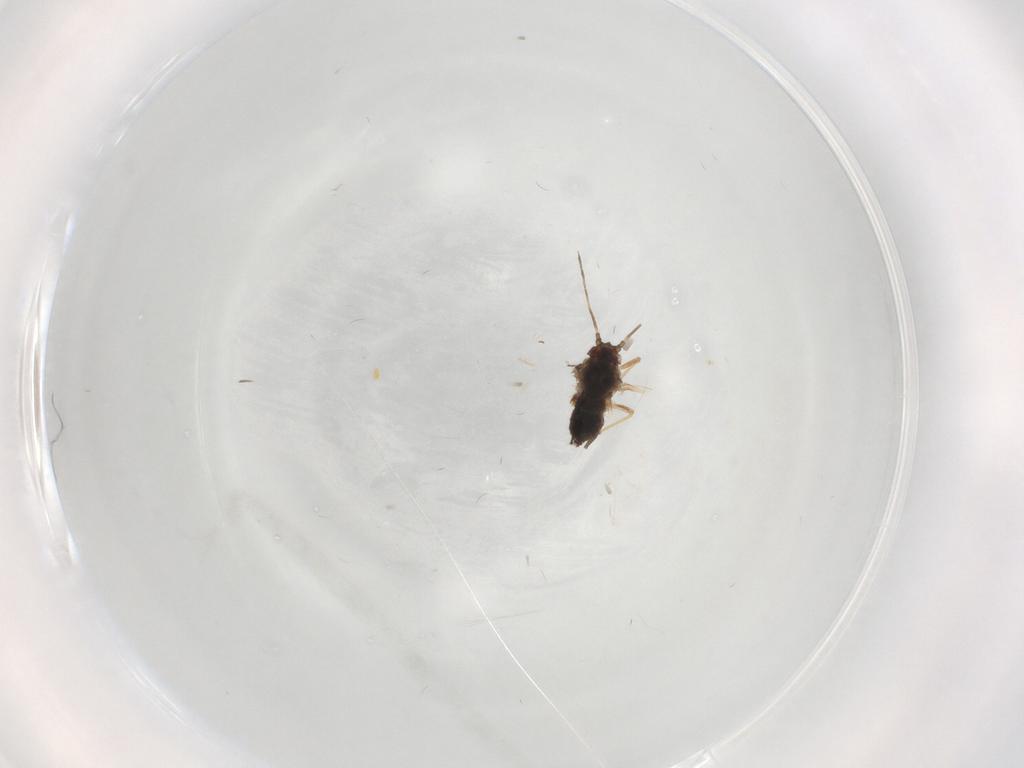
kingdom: Animalia
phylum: Arthropoda
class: Insecta
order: Hemiptera
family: Aphididae
